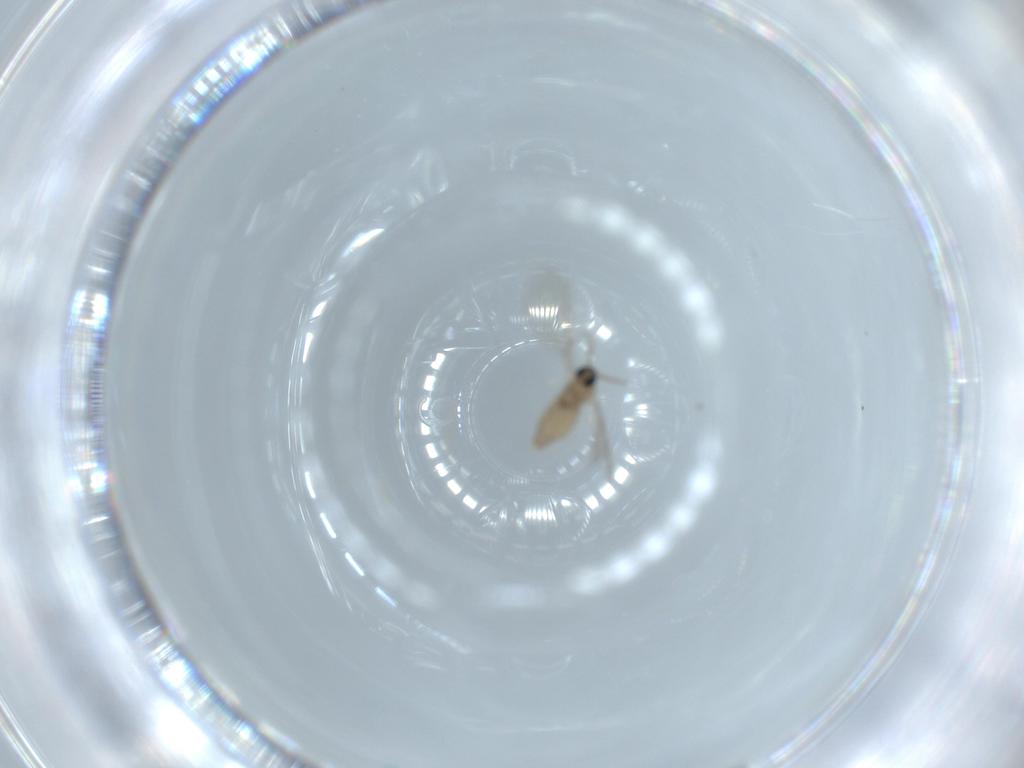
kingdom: Animalia
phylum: Arthropoda
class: Insecta
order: Diptera
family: Cecidomyiidae
